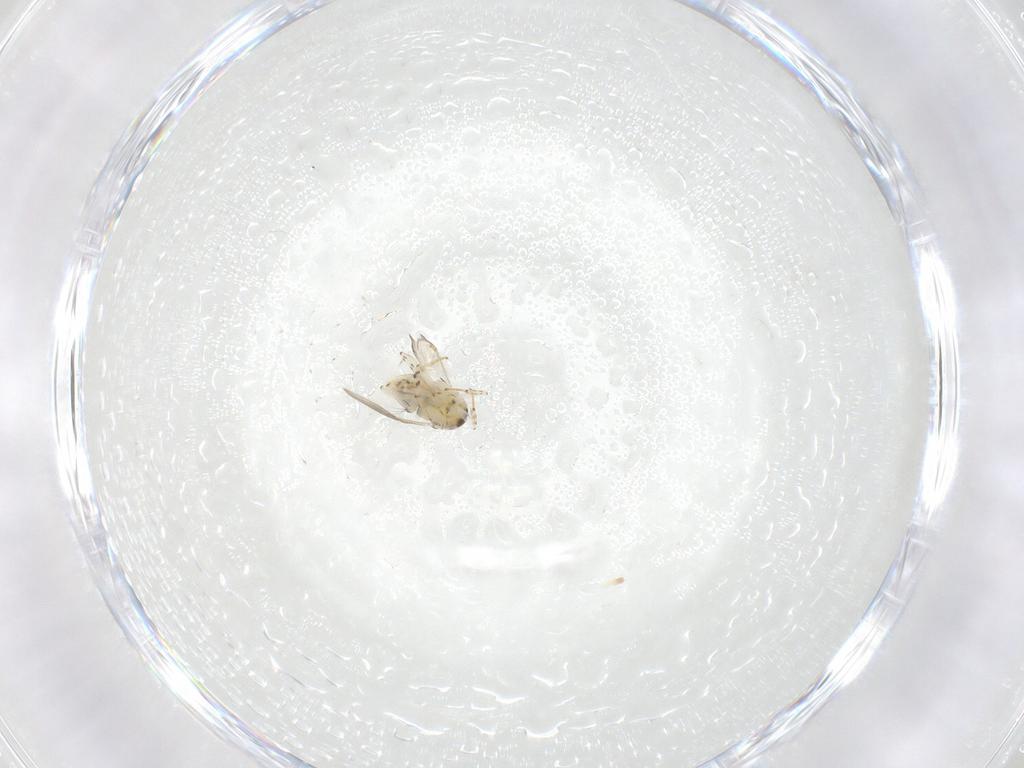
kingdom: Animalia
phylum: Arthropoda
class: Insecta
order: Hymenoptera
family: Encyrtidae
